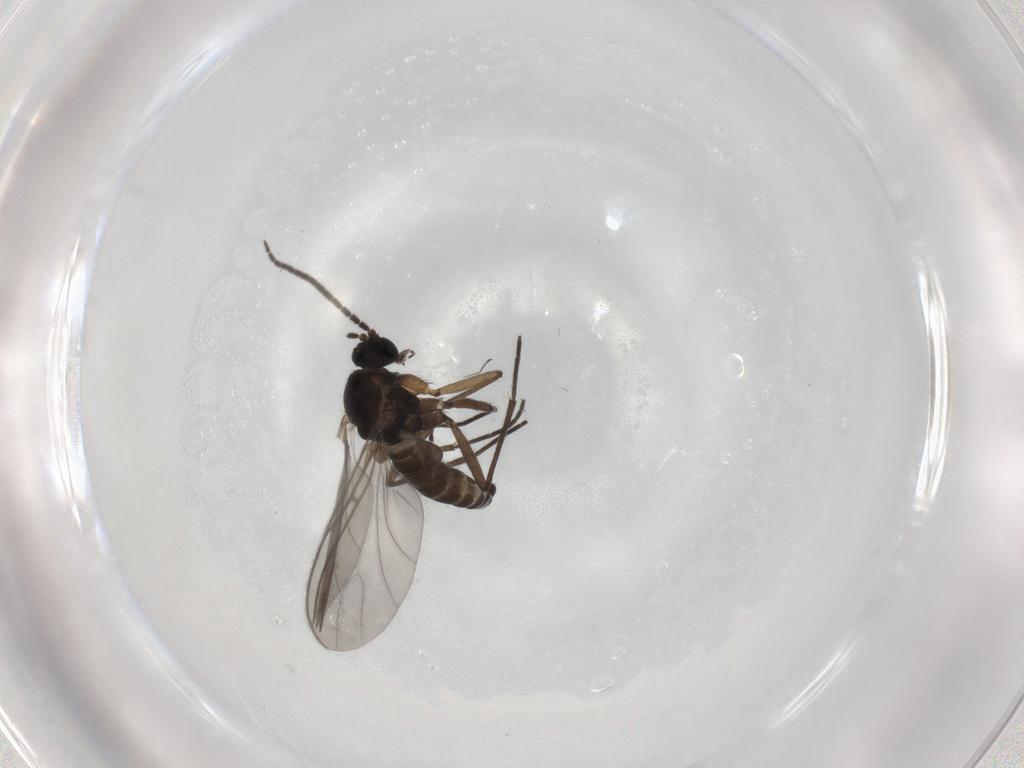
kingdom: Animalia
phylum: Arthropoda
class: Insecta
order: Diptera
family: Sciaridae
